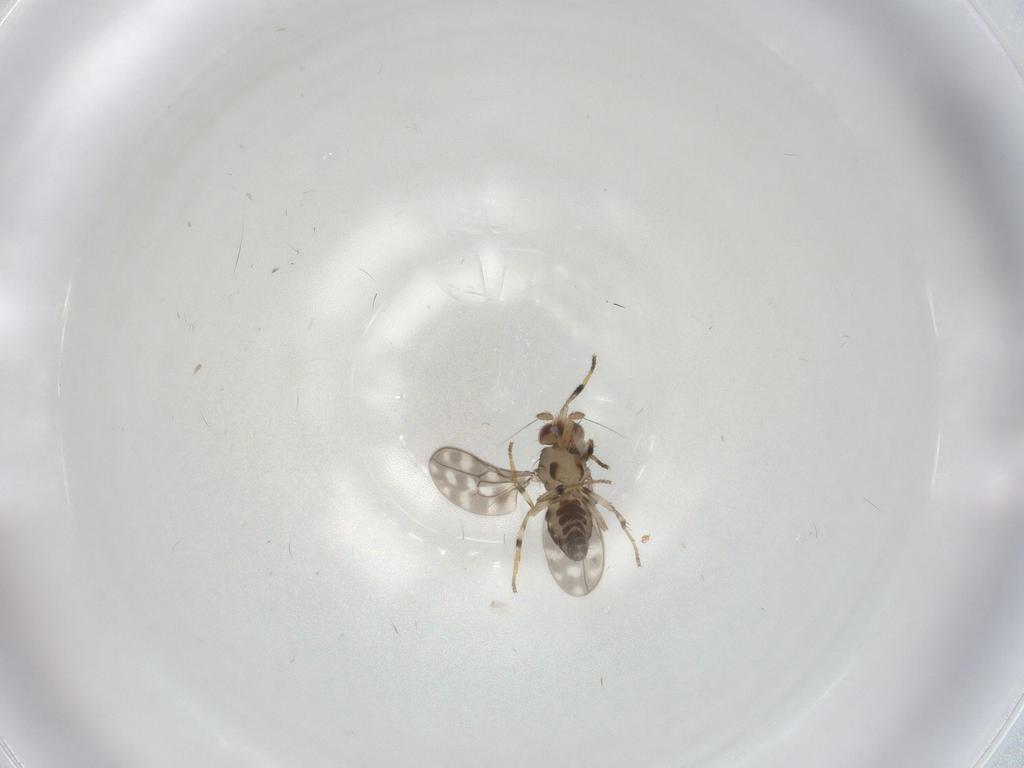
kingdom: Animalia
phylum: Arthropoda
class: Insecta
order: Diptera
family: Sphaeroceridae
